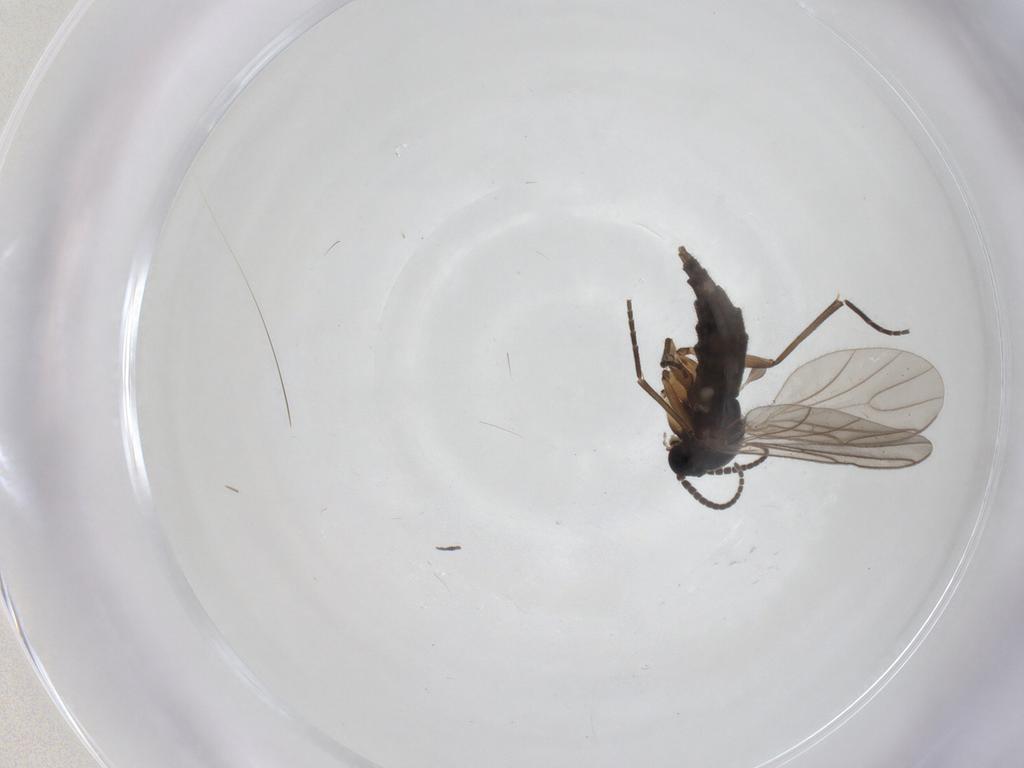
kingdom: Animalia
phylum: Arthropoda
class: Insecta
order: Diptera
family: Sciaridae
